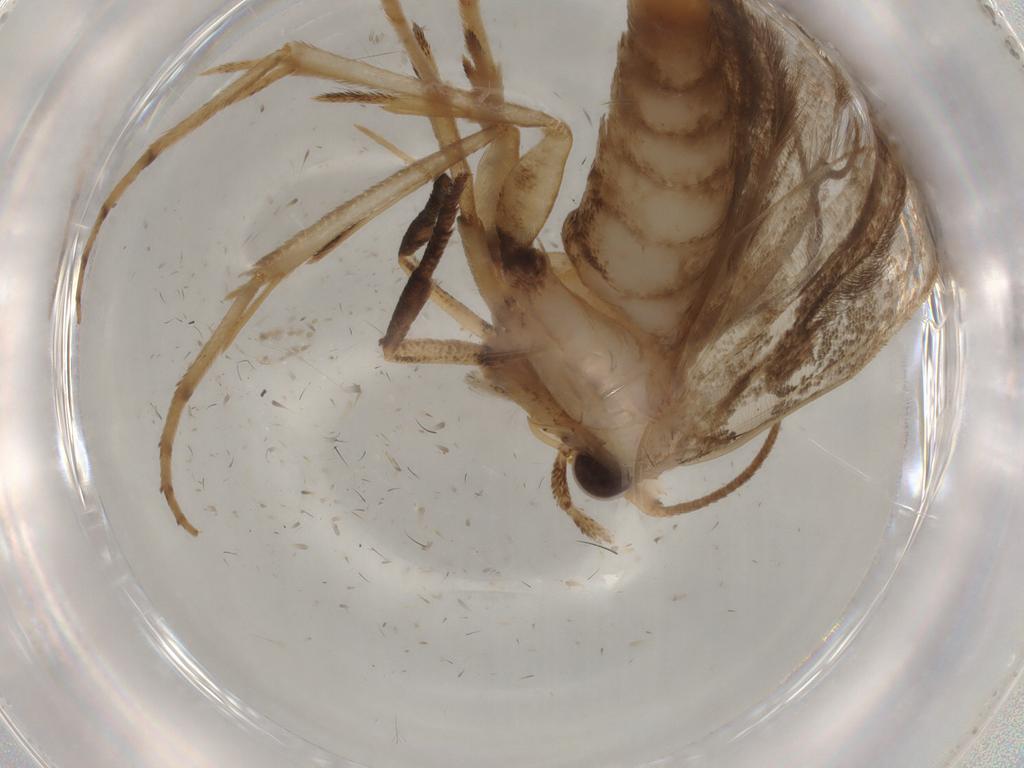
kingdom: Animalia
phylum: Arthropoda
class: Insecta
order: Lepidoptera
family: Yponomeutidae
